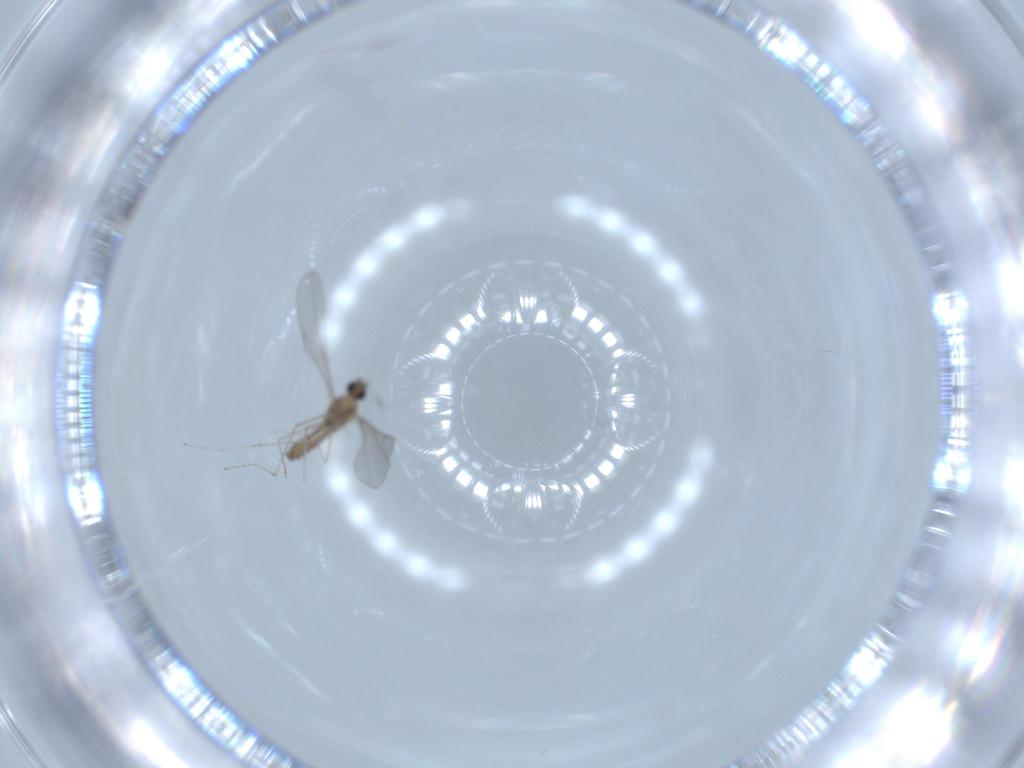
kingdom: Animalia
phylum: Arthropoda
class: Insecta
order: Diptera
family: Cecidomyiidae
